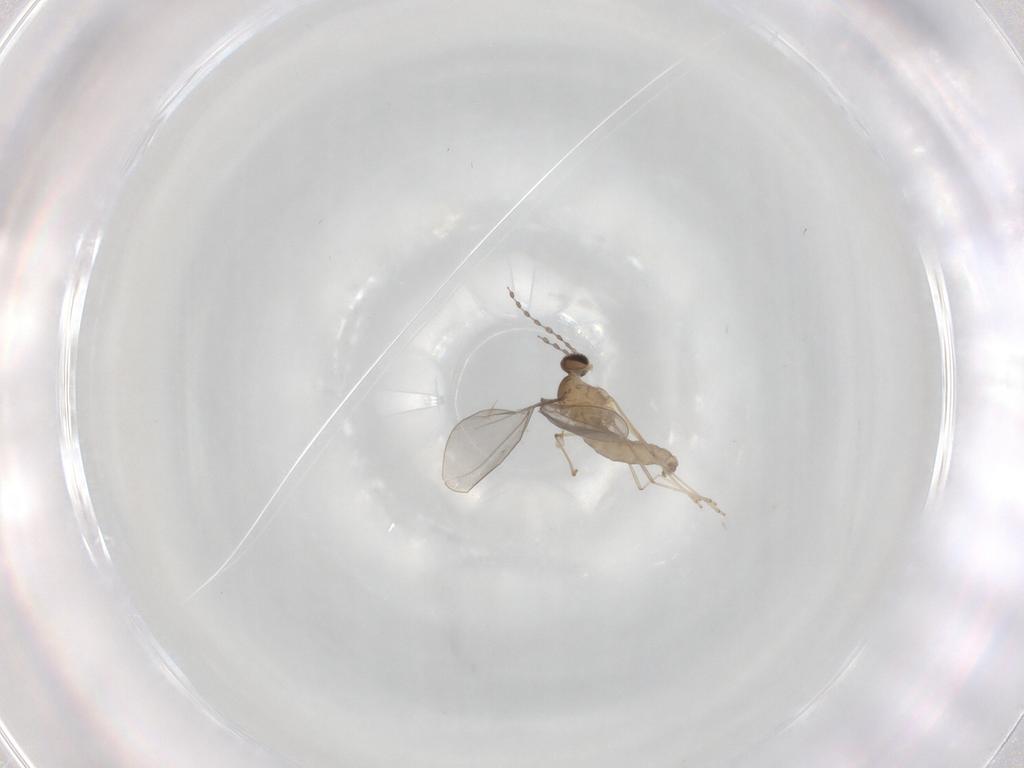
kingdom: Animalia
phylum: Arthropoda
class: Insecta
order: Diptera
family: Cecidomyiidae
